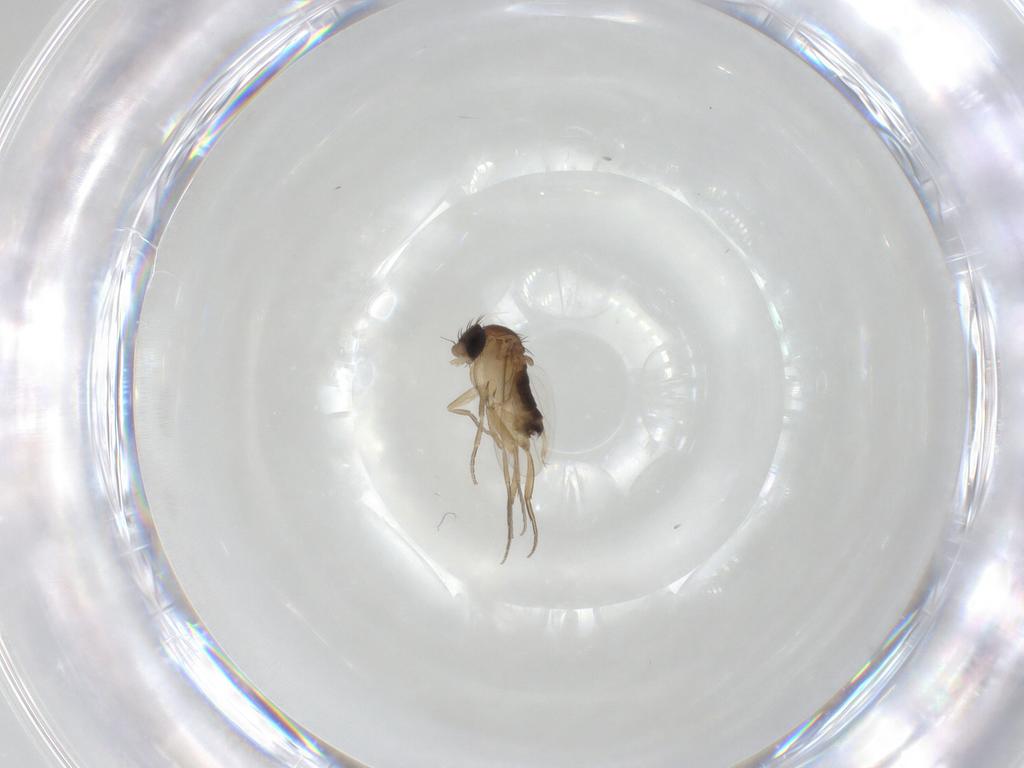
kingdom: Animalia
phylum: Arthropoda
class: Insecta
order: Diptera
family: Phoridae
